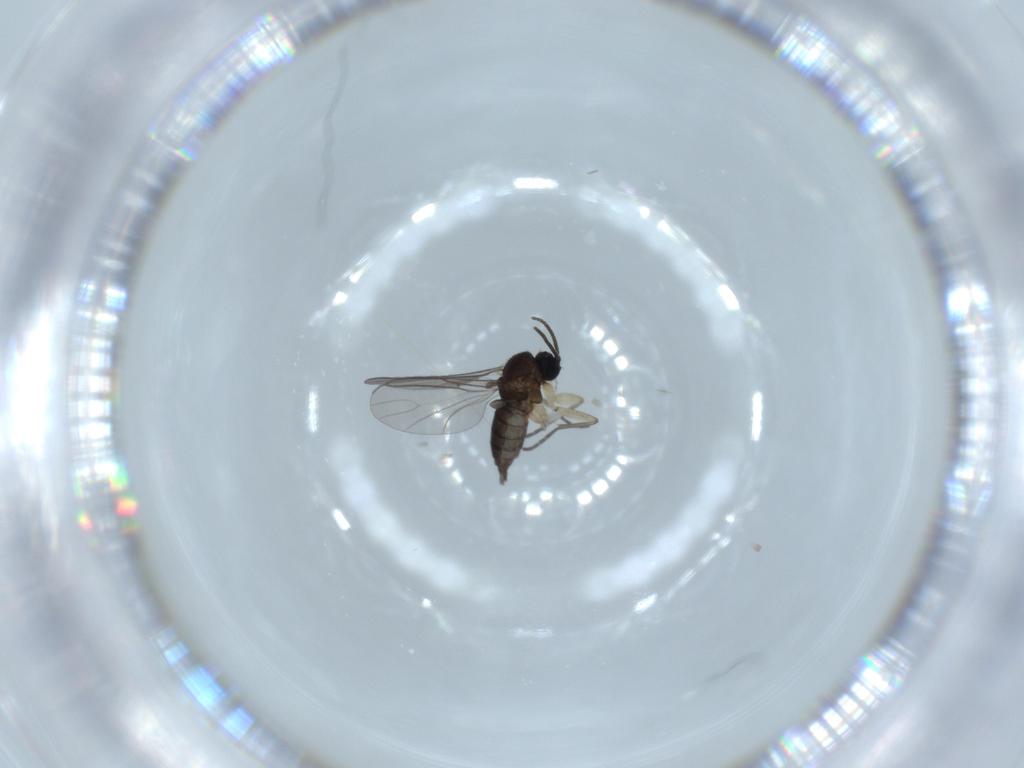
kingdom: Animalia
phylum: Arthropoda
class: Insecta
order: Diptera
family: Sciaridae
